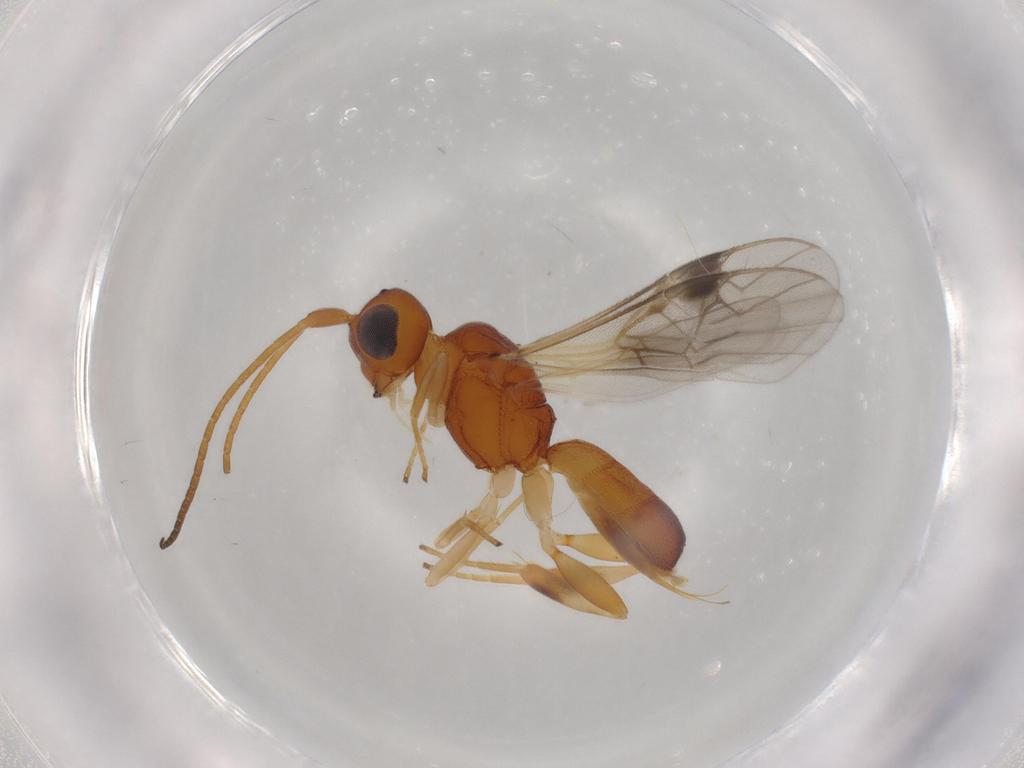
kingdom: Animalia
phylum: Arthropoda
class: Insecta
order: Hymenoptera
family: Braconidae
